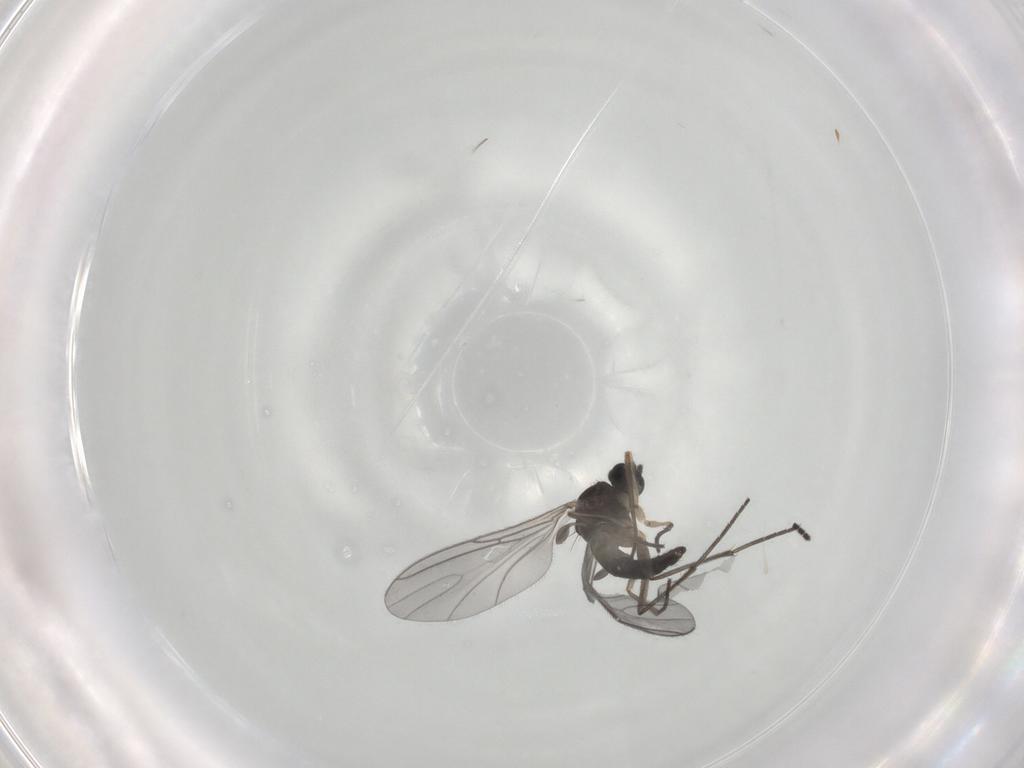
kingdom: Animalia
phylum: Arthropoda
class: Insecta
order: Diptera
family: Sciaridae
